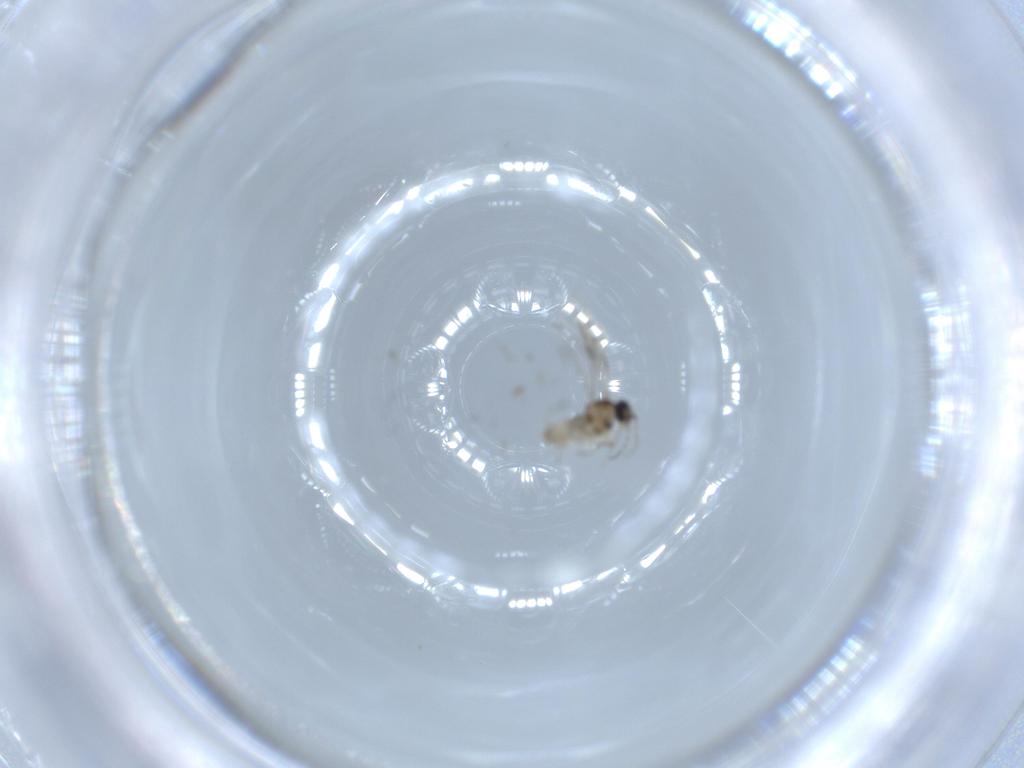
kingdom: Animalia
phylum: Arthropoda
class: Insecta
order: Diptera
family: Cecidomyiidae
